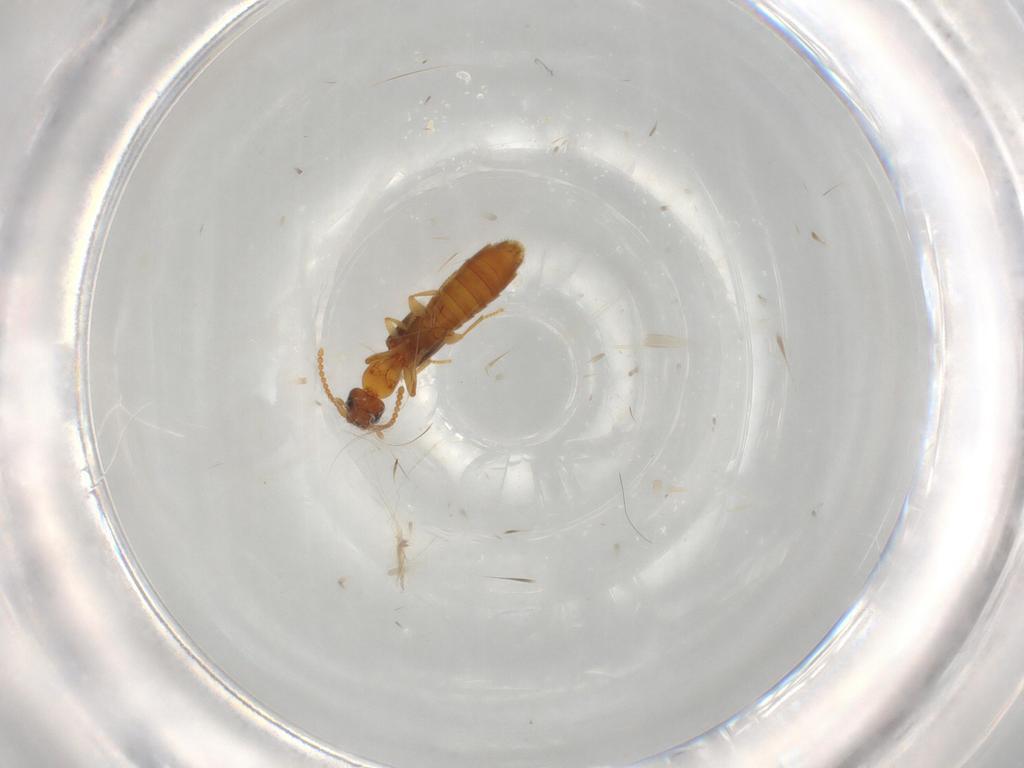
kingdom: Animalia
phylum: Arthropoda
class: Insecta
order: Coleoptera
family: Staphylinidae
